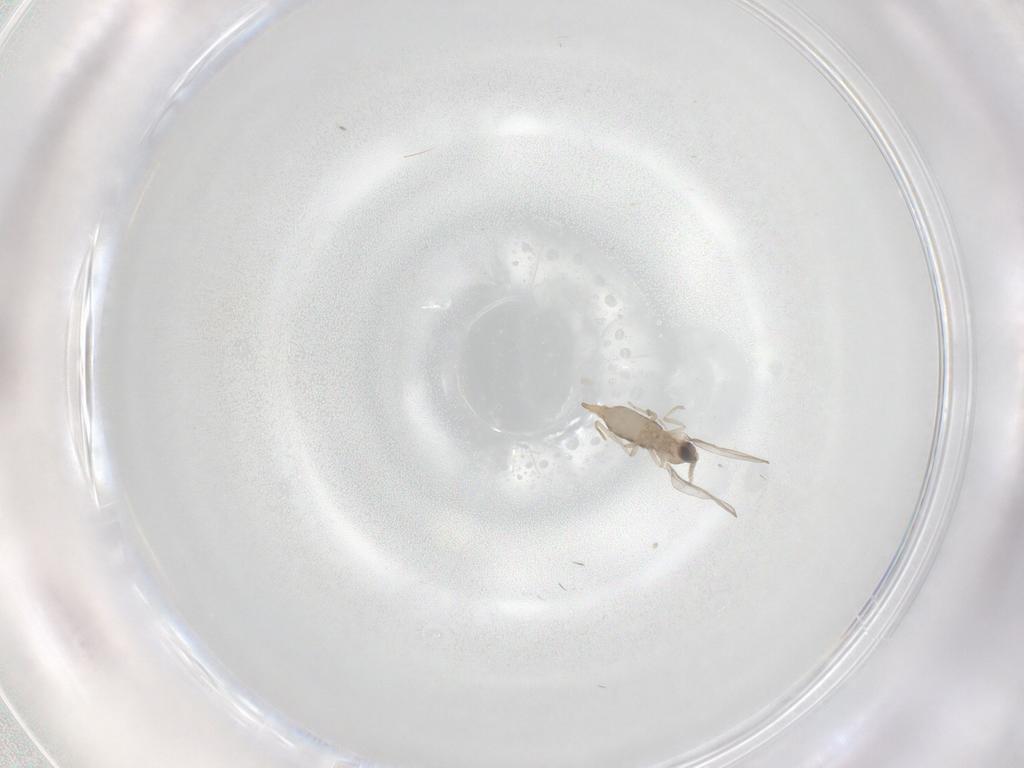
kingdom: Animalia
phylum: Arthropoda
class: Insecta
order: Diptera
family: Cecidomyiidae
